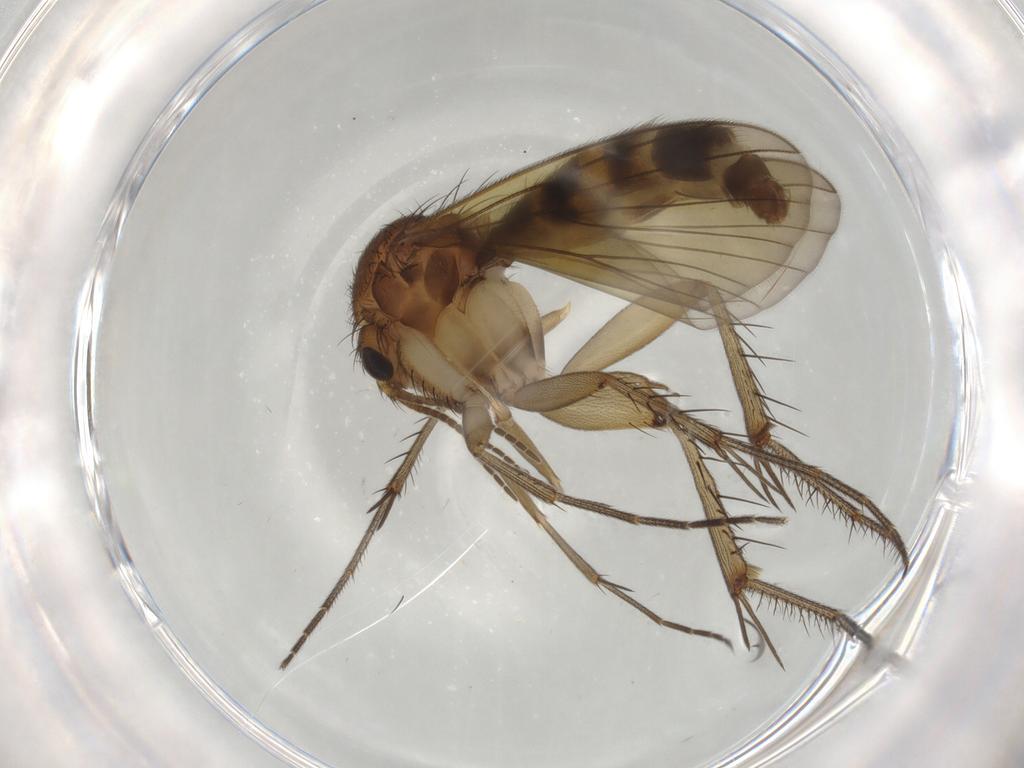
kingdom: Animalia
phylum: Arthropoda
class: Insecta
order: Diptera
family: Mycetophilidae
